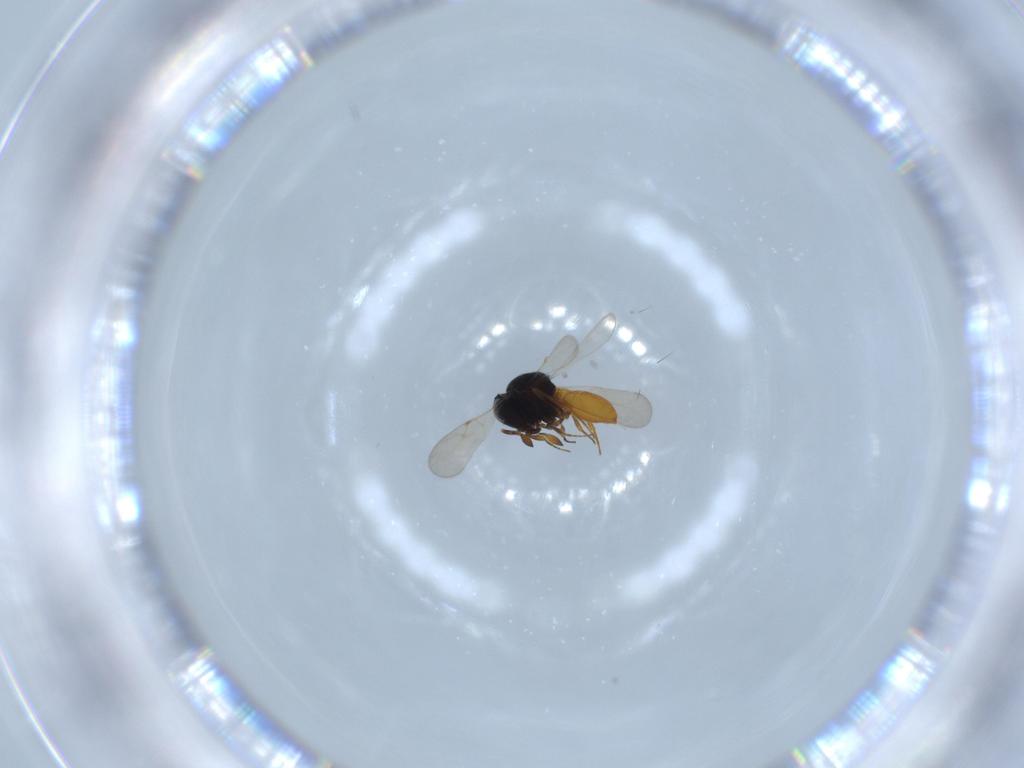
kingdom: Animalia
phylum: Arthropoda
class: Insecta
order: Hymenoptera
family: Scelionidae
